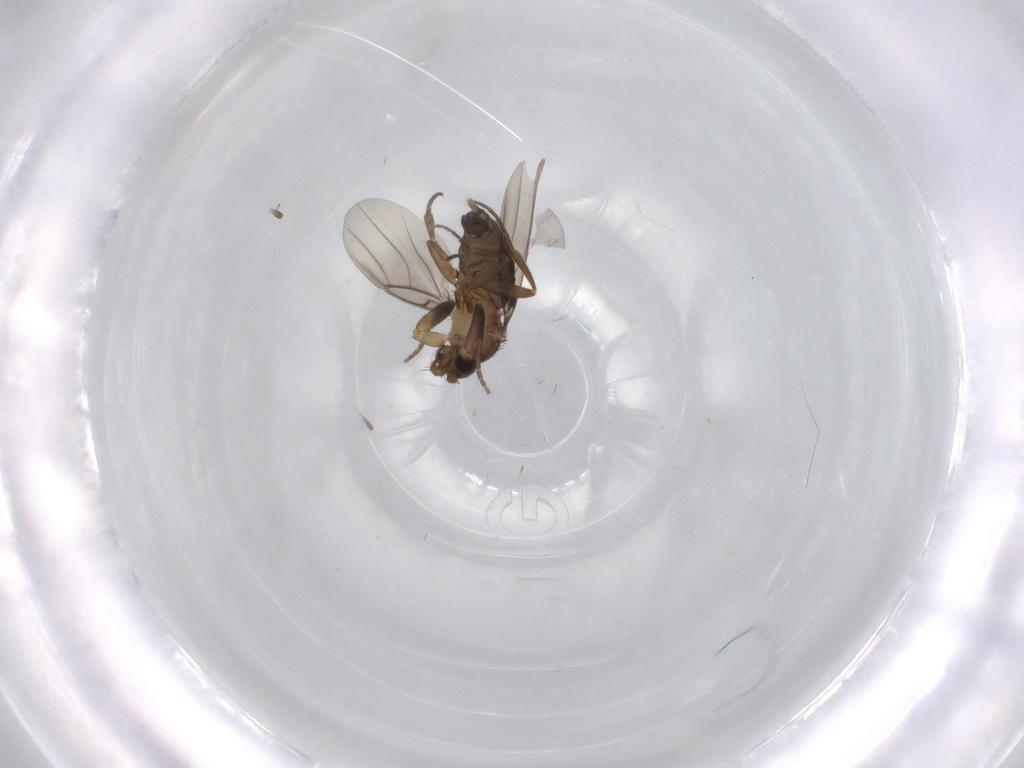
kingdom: Animalia
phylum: Arthropoda
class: Insecta
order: Diptera
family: Phoridae
